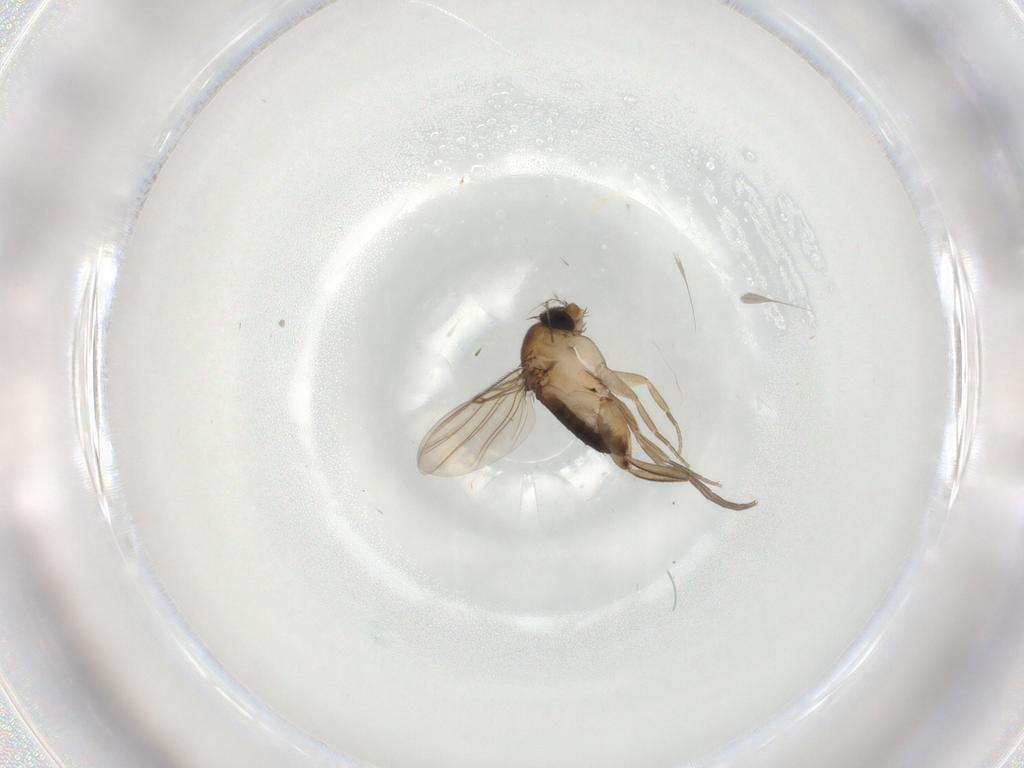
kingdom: Animalia
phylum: Arthropoda
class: Insecta
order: Diptera
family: Phoridae
